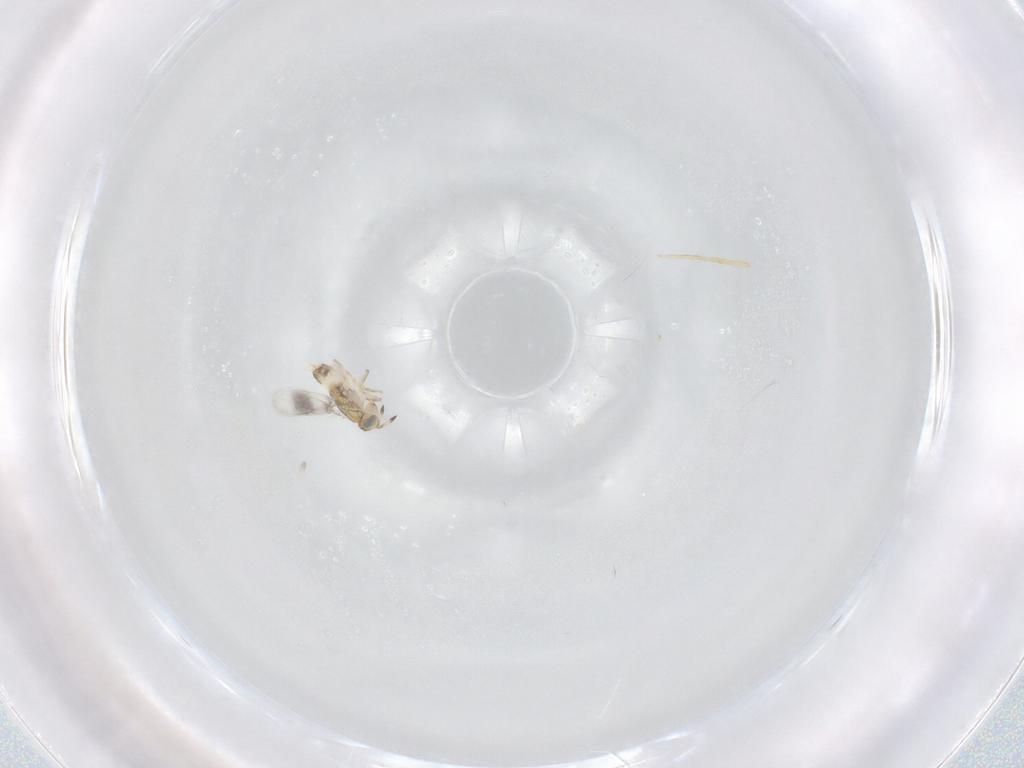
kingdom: Animalia
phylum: Arthropoda
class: Insecta
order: Hymenoptera
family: Aphelinidae
